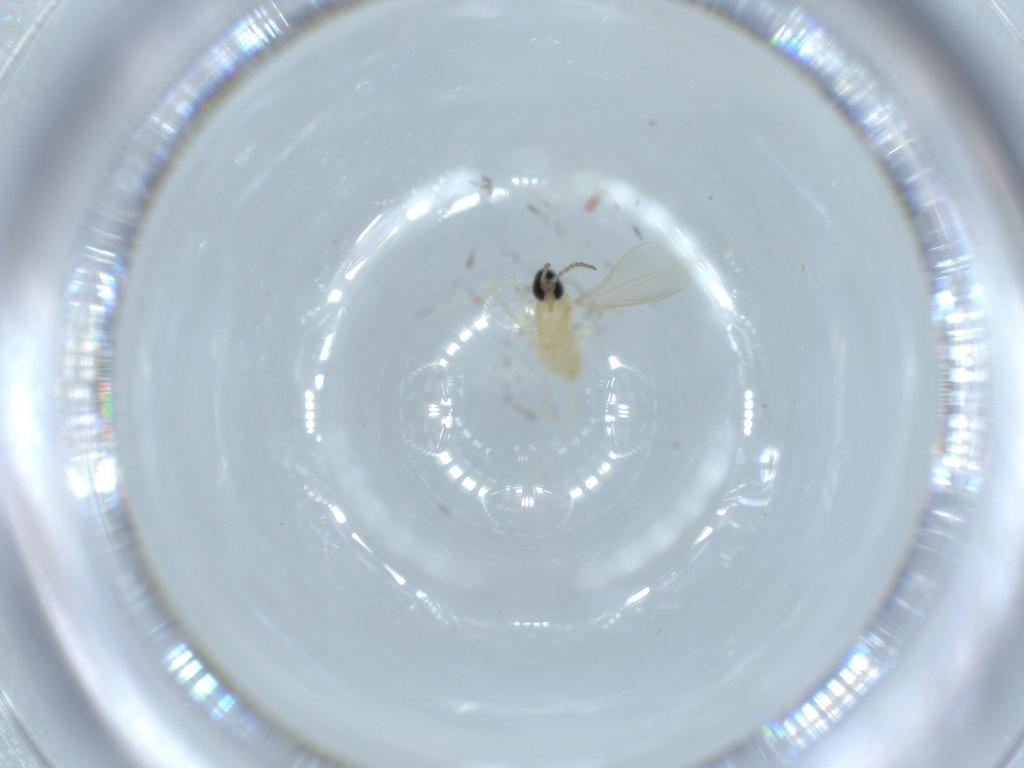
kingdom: Animalia
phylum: Arthropoda
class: Insecta
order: Diptera
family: Cecidomyiidae
